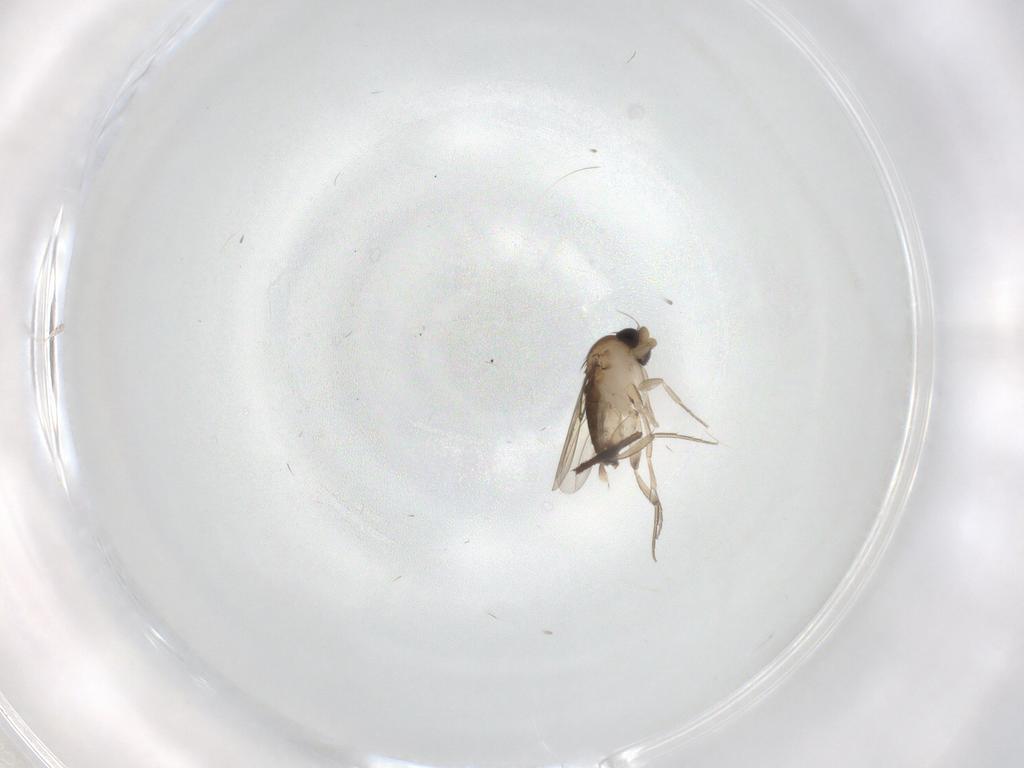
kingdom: Animalia
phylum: Arthropoda
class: Insecta
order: Diptera
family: Phoridae
